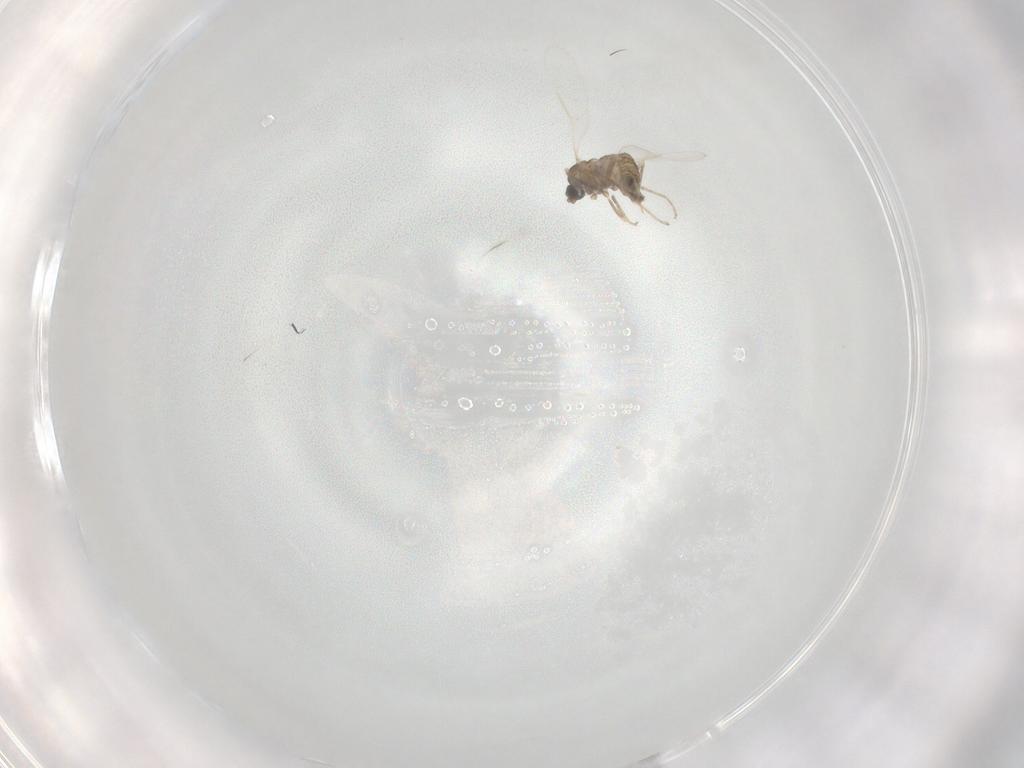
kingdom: Animalia
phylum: Arthropoda
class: Insecta
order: Diptera
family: Cecidomyiidae
